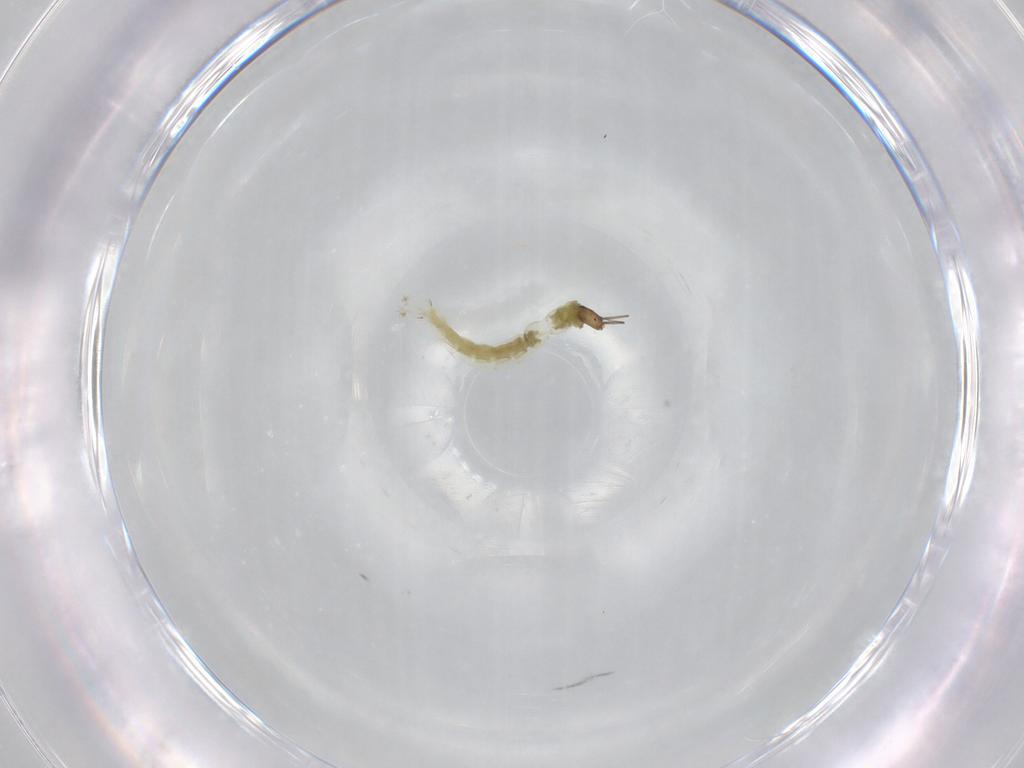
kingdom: Animalia
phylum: Arthropoda
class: Insecta
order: Diptera
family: Chironomidae
